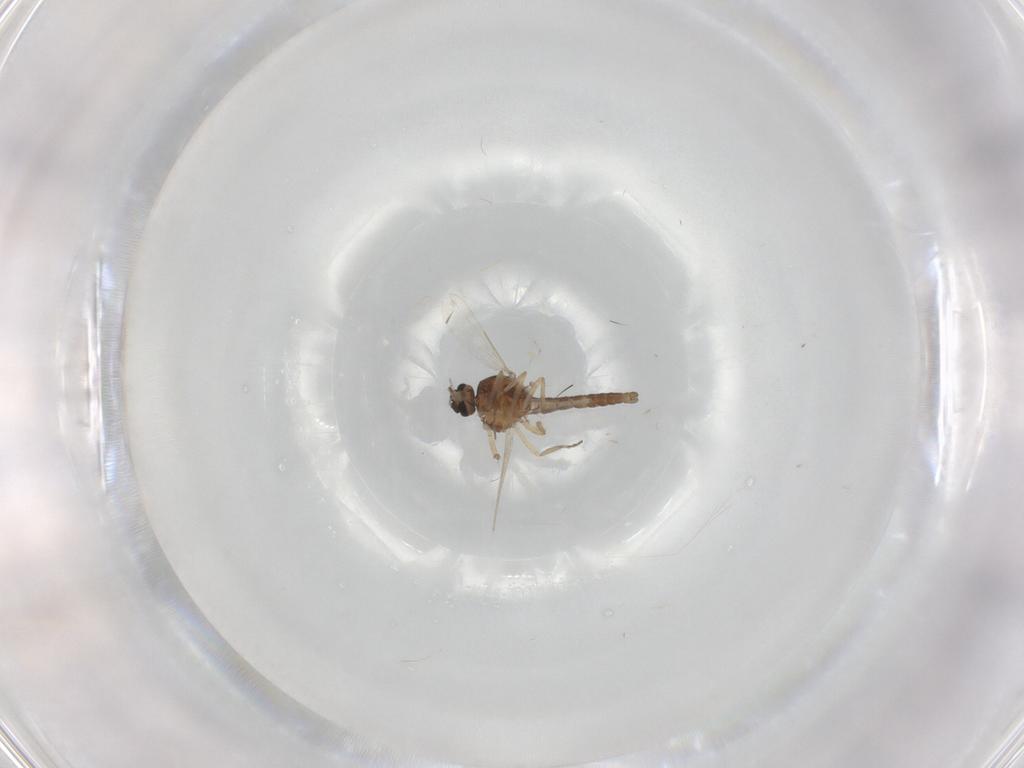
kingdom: Animalia
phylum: Arthropoda
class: Insecta
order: Diptera
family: Ceratopogonidae
